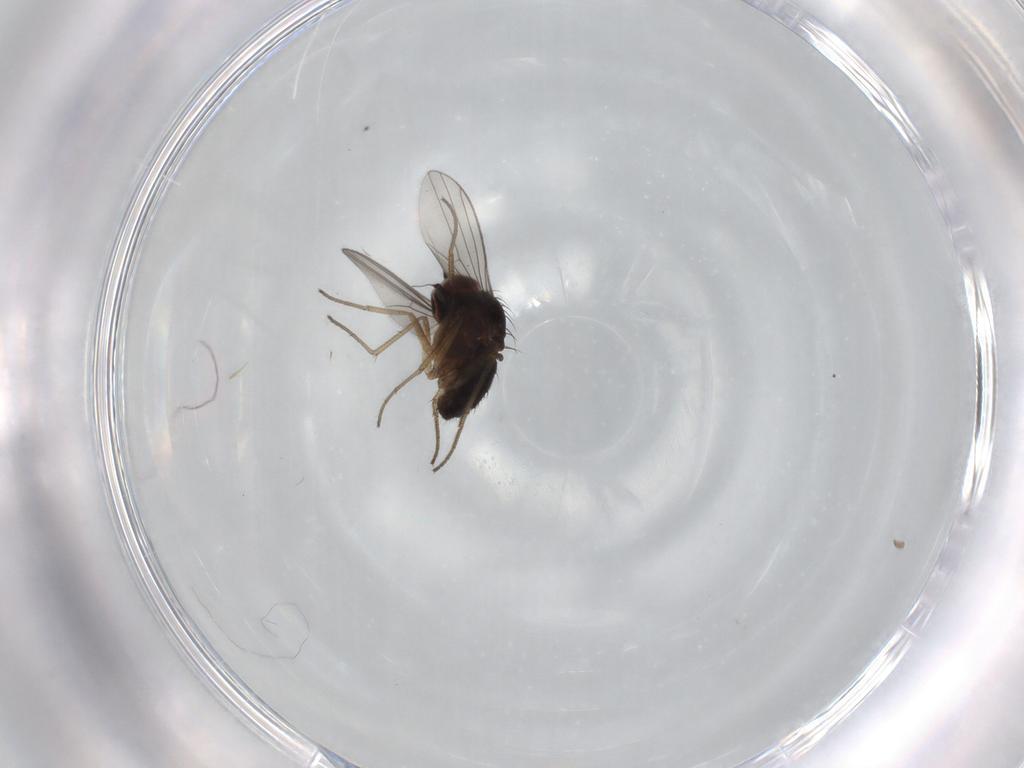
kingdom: Animalia
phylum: Arthropoda
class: Insecta
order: Diptera
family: Dolichopodidae
